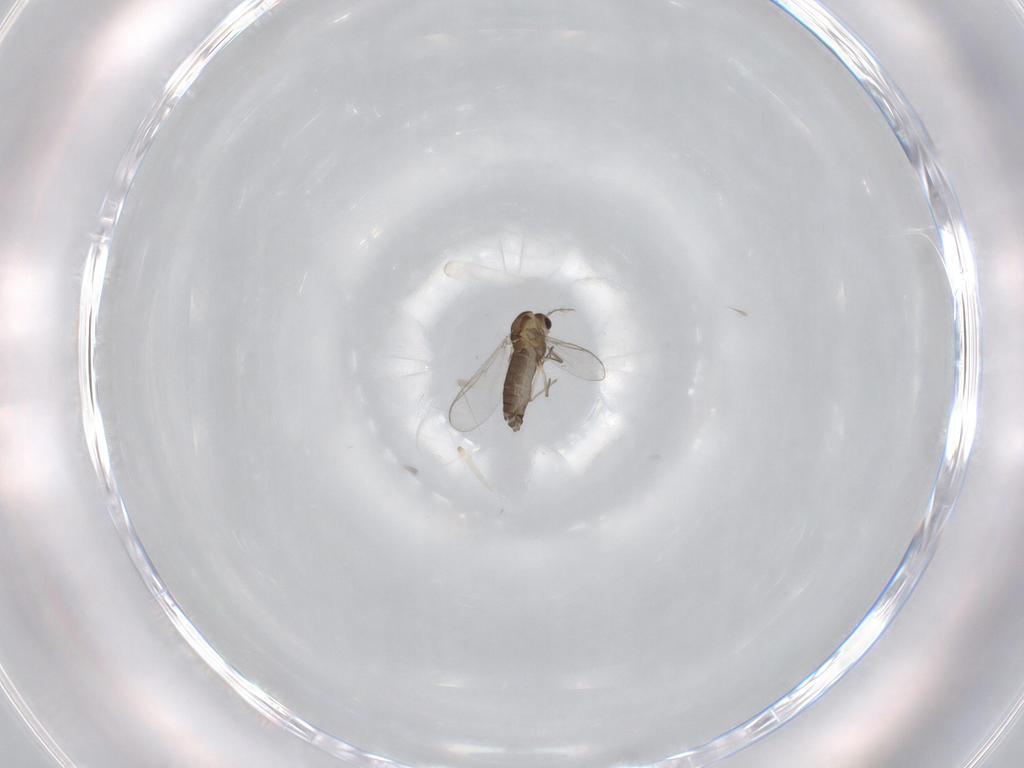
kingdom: Animalia
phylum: Arthropoda
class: Insecta
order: Diptera
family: Chironomidae
